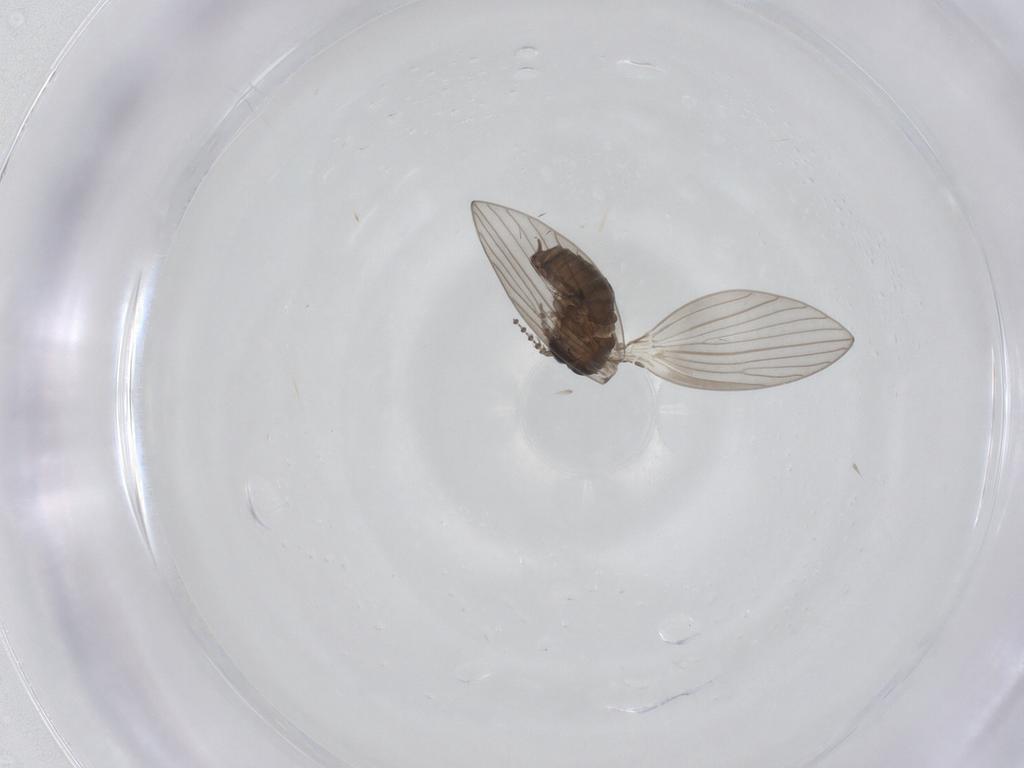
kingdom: Animalia
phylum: Arthropoda
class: Insecta
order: Diptera
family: Psychodidae
